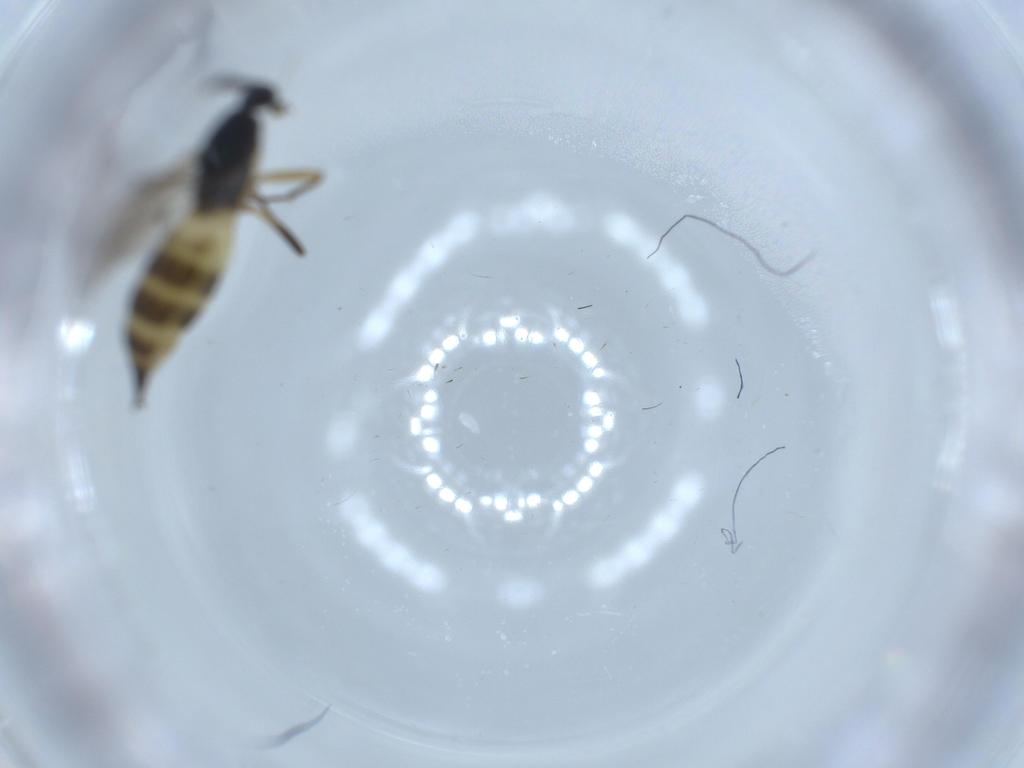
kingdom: Animalia
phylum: Arthropoda
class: Insecta
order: Diptera
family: Sciaridae
